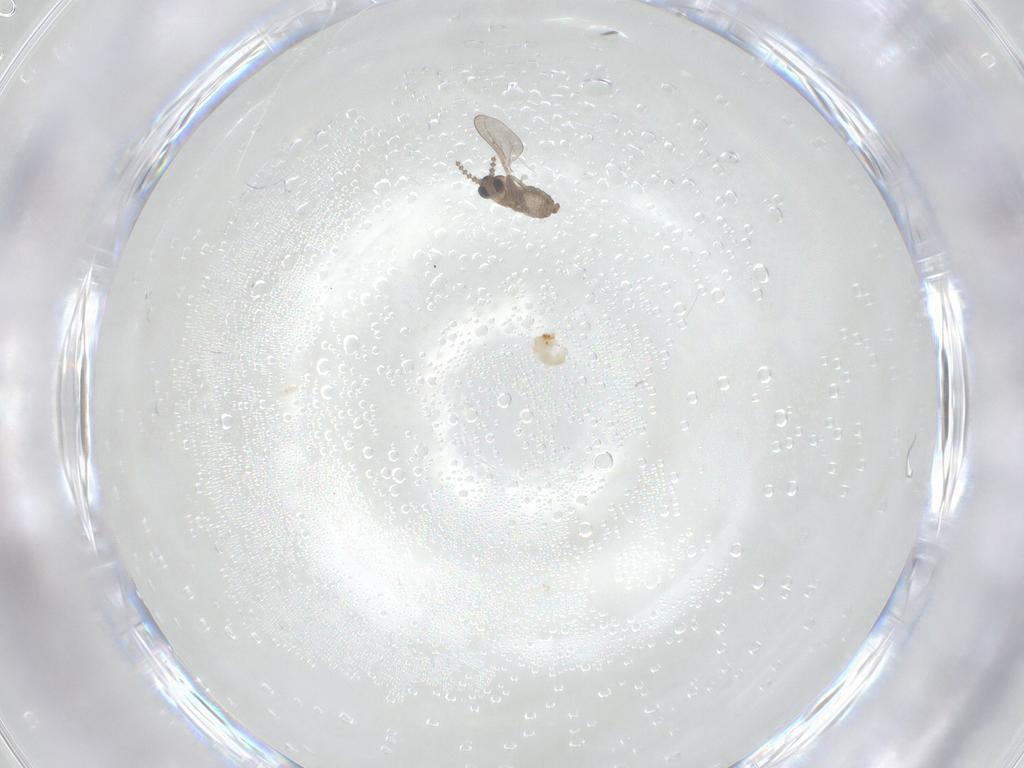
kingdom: Animalia
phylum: Arthropoda
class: Insecta
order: Diptera
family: Cecidomyiidae
